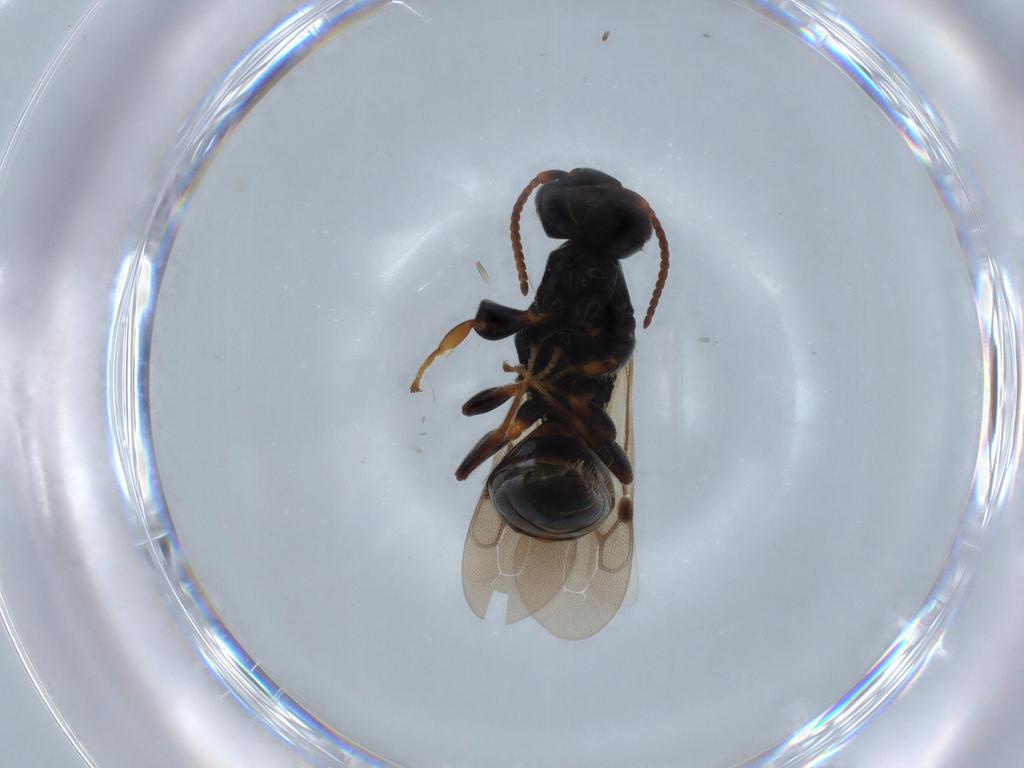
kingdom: Animalia
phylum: Arthropoda
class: Insecta
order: Hymenoptera
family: Bethylidae
